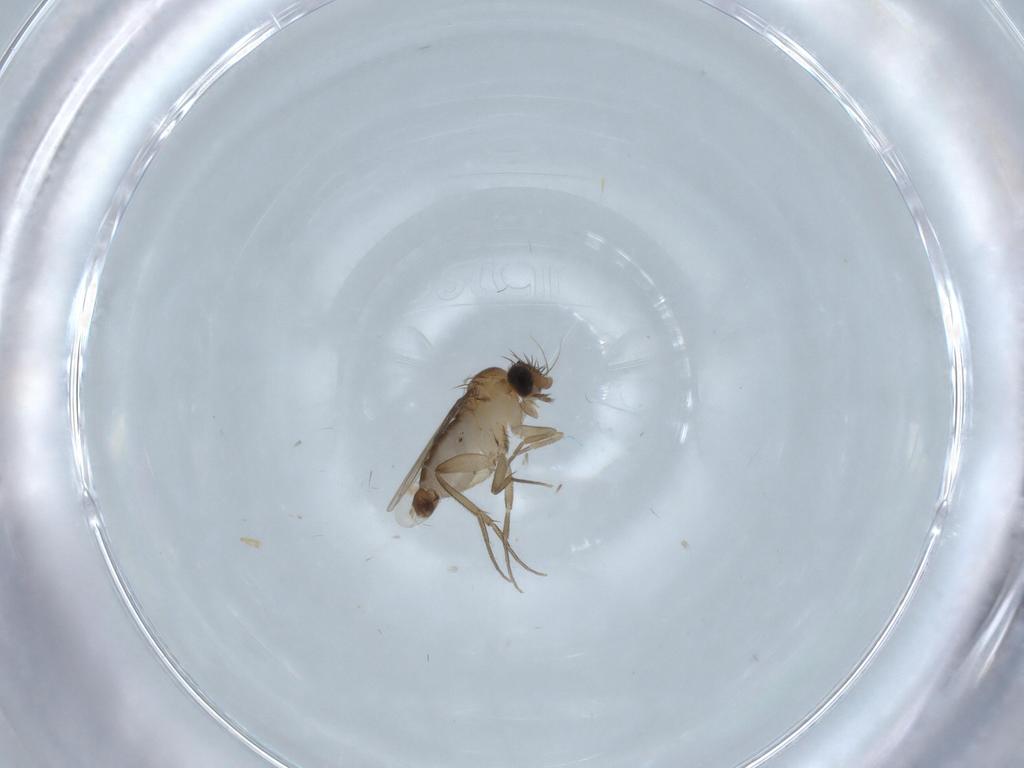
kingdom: Animalia
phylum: Arthropoda
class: Insecta
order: Diptera
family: Phoridae
